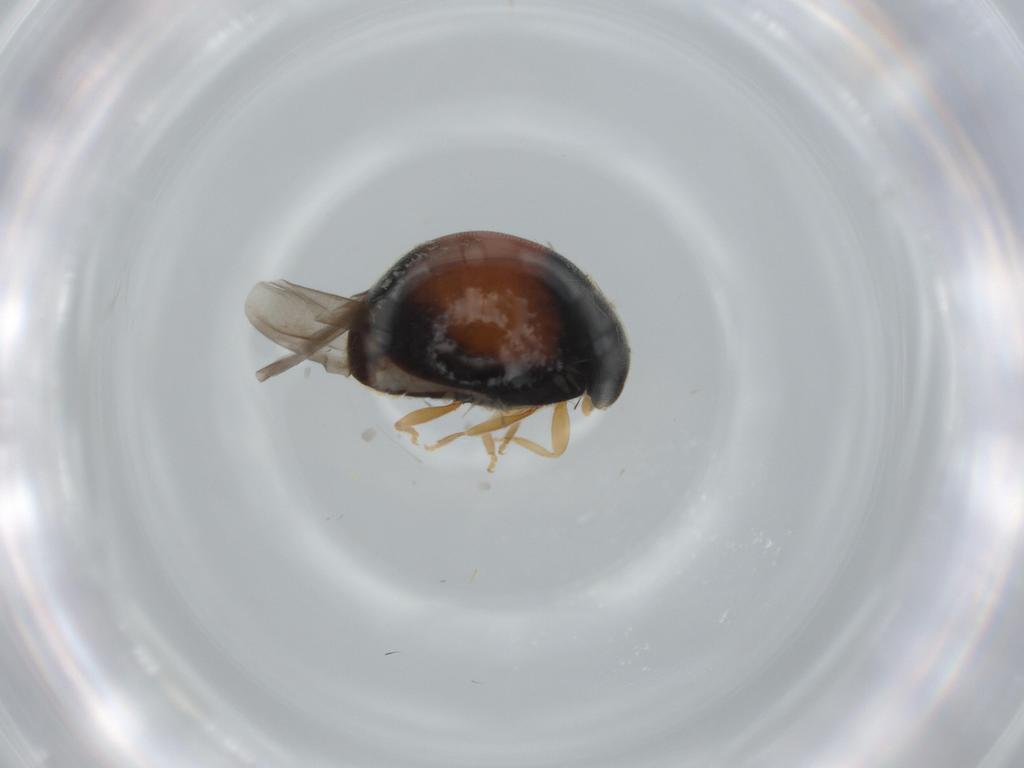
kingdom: Animalia
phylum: Arthropoda
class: Insecta
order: Coleoptera
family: Coccinellidae
